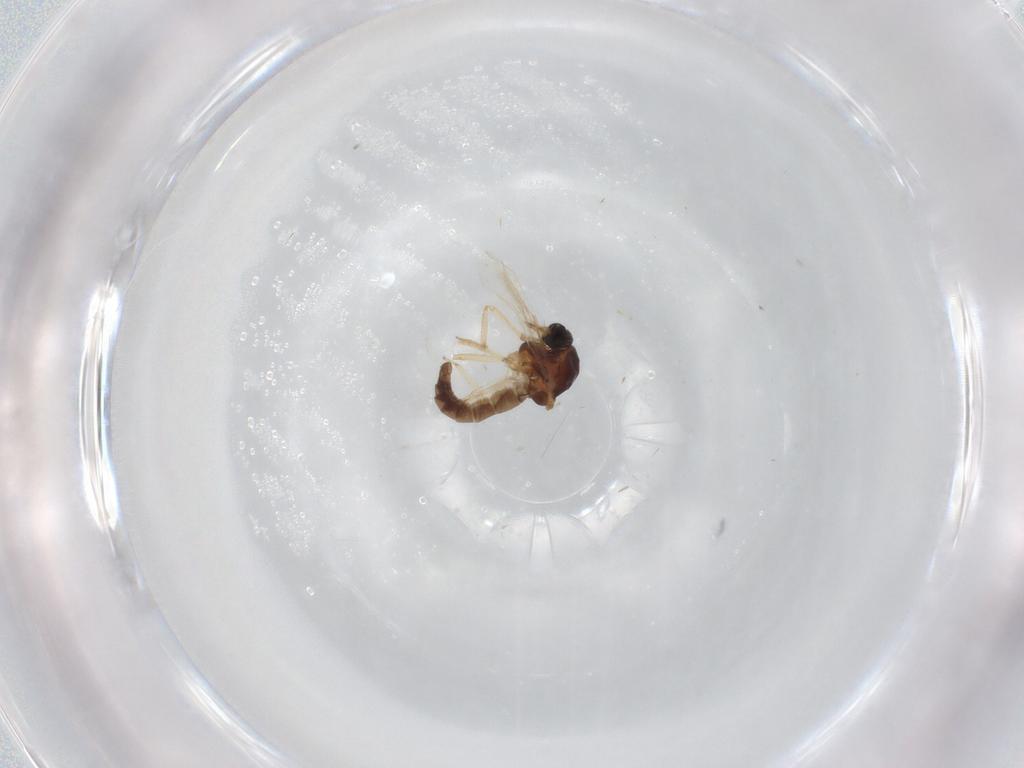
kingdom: Animalia
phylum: Arthropoda
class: Insecta
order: Diptera
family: Ceratopogonidae
